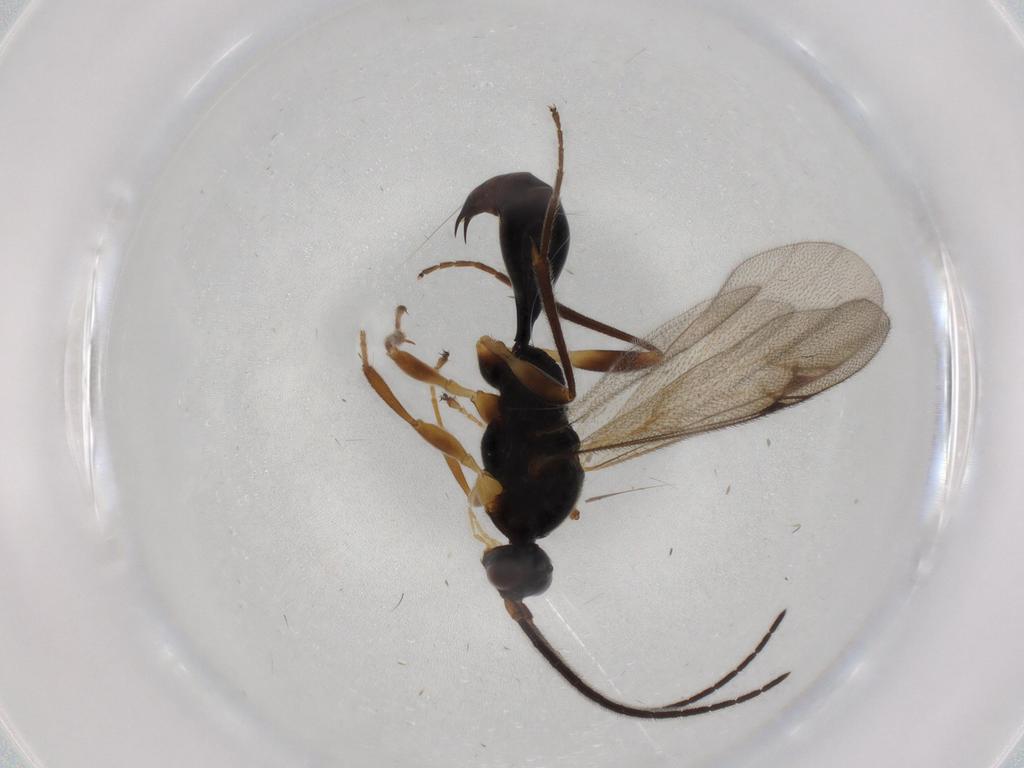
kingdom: Animalia
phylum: Arthropoda
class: Insecta
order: Hymenoptera
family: Proctotrupidae
